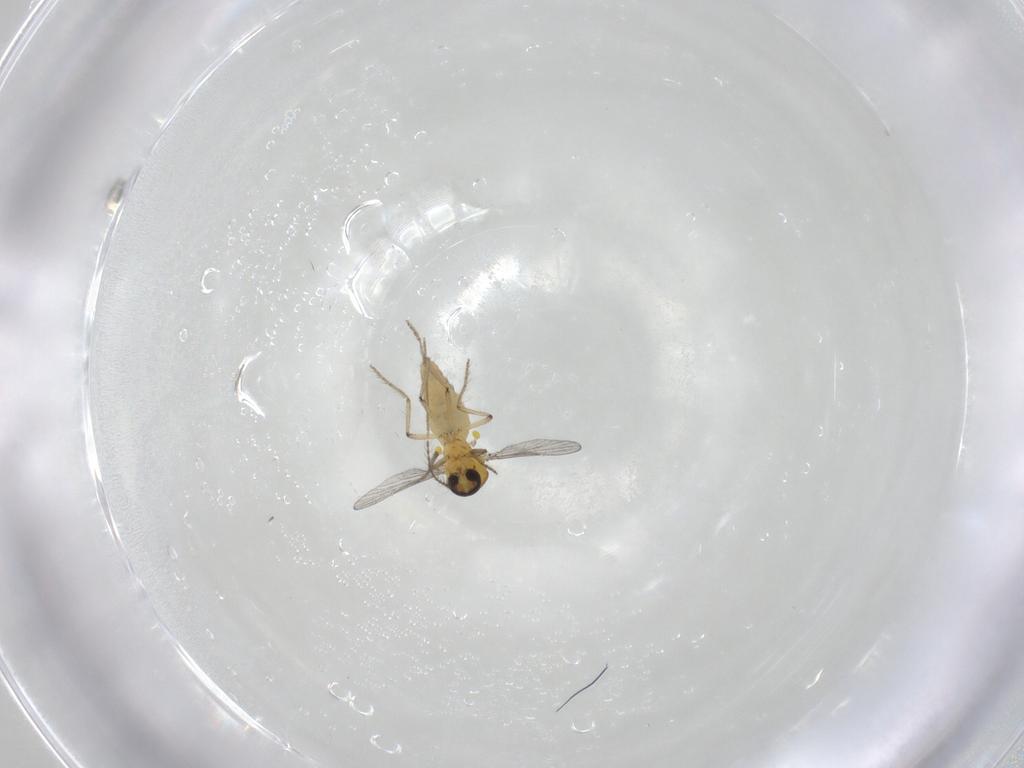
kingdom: Animalia
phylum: Arthropoda
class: Insecta
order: Diptera
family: Ceratopogonidae
